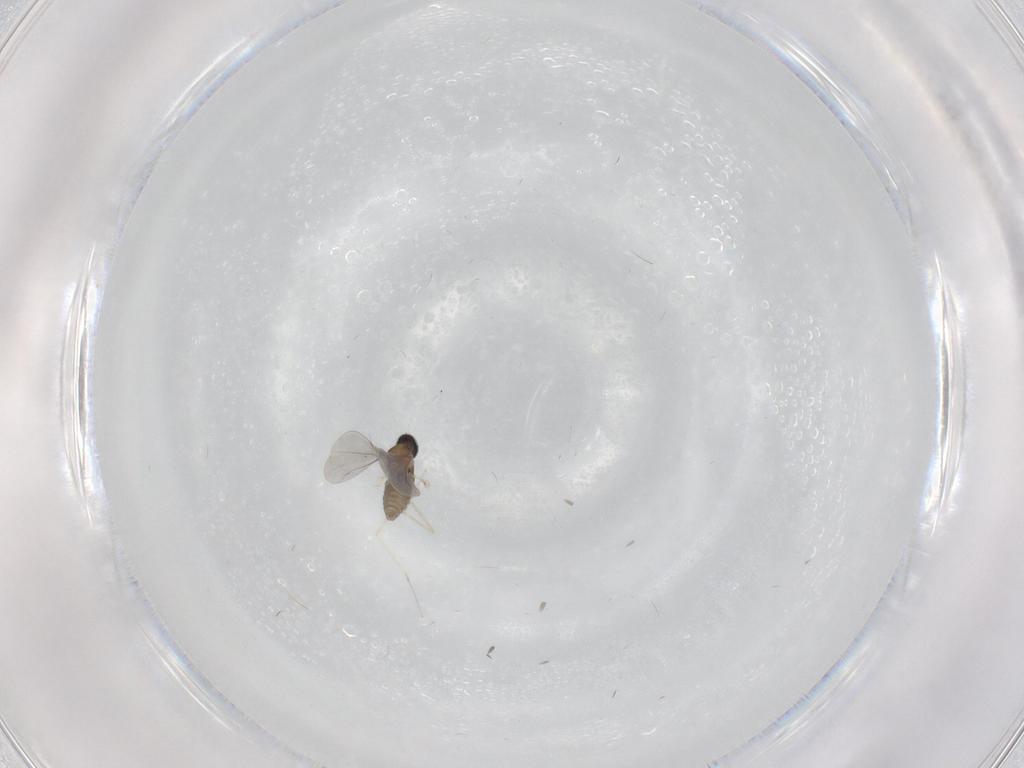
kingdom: Animalia
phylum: Arthropoda
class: Insecta
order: Diptera
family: Cecidomyiidae
